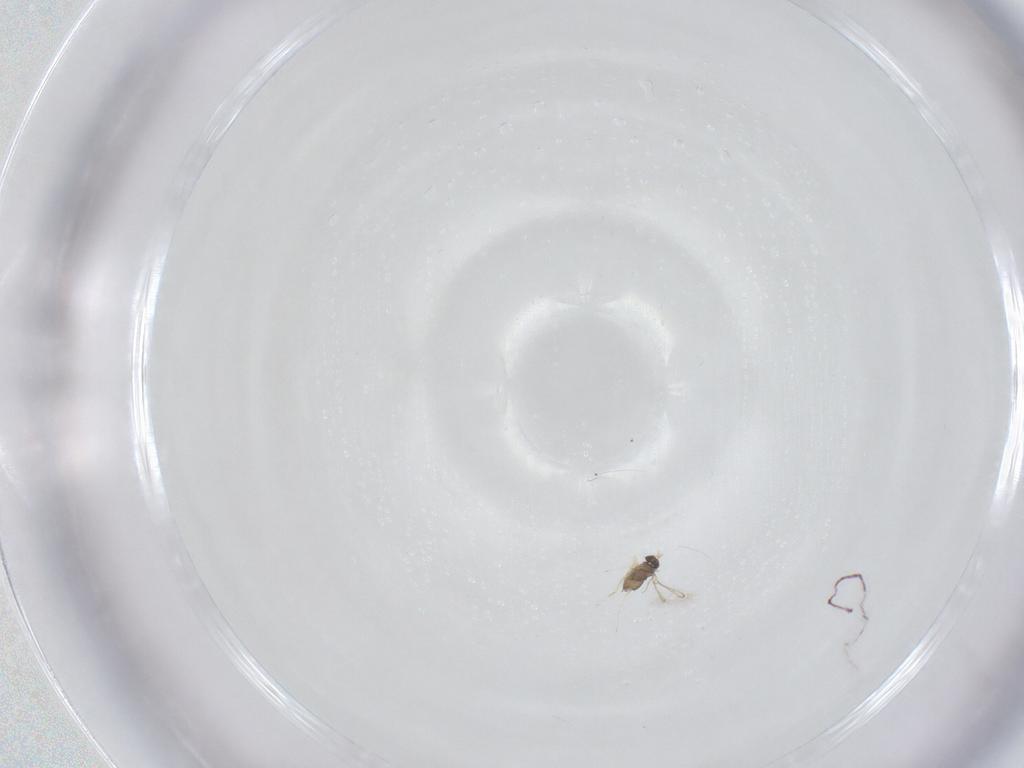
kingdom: Animalia
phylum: Arthropoda
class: Insecta
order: Hymenoptera
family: Mymaridae
